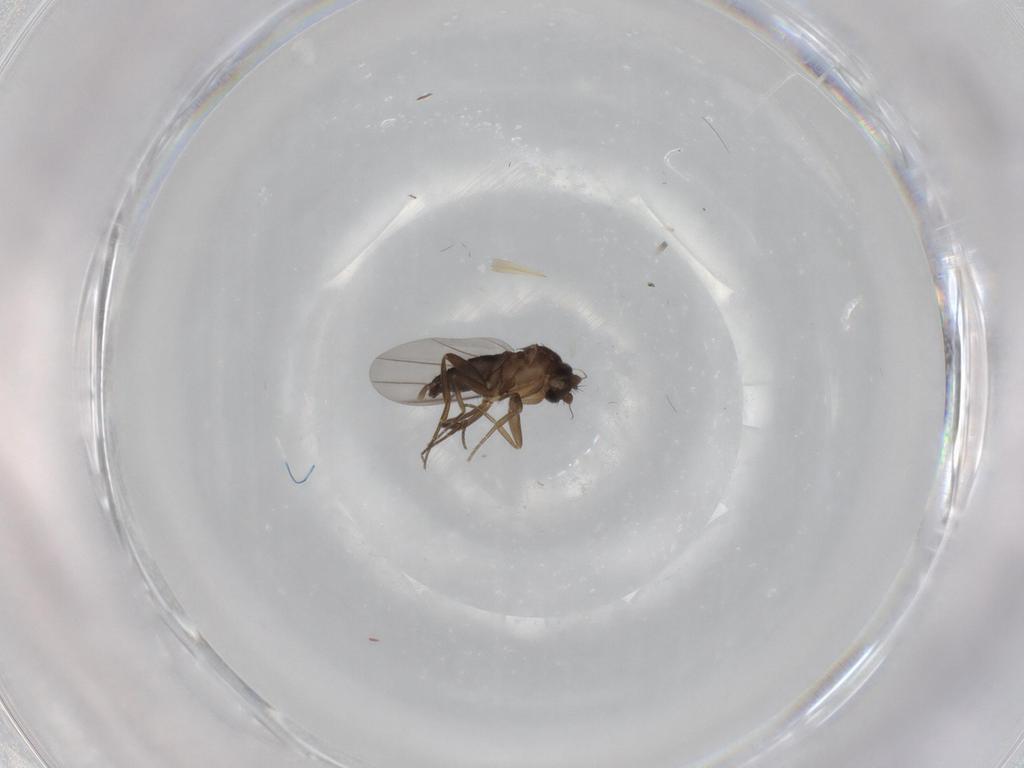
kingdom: Animalia
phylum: Arthropoda
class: Insecta
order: Diptera
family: Phoridae
